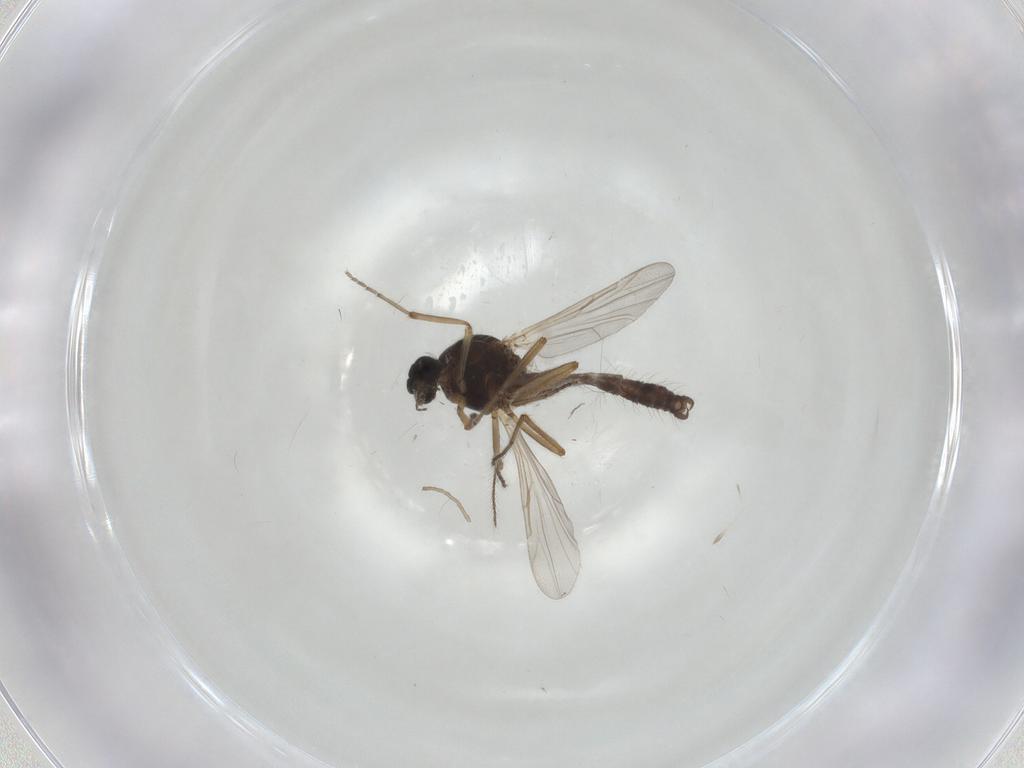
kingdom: Animalia
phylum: Arthropoda
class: Insecta
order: Diptera
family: Ceratopogonidae
